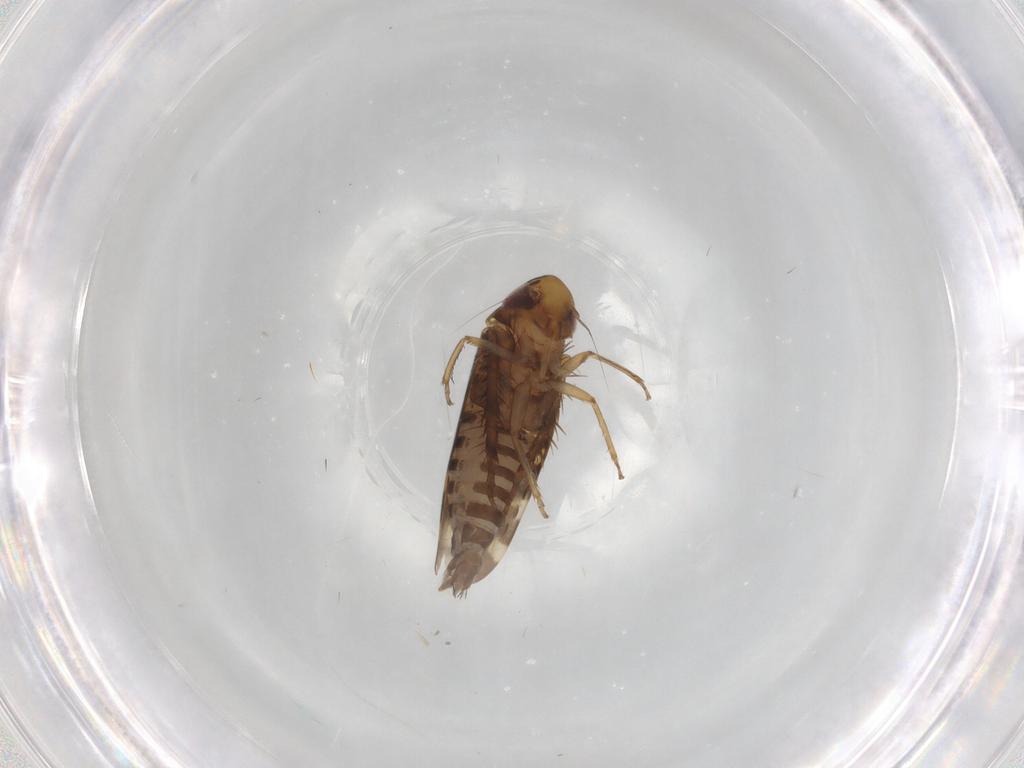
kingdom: Animalia
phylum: Arthropoda
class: Insecta
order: Hemiptera
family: Cicadellidae
